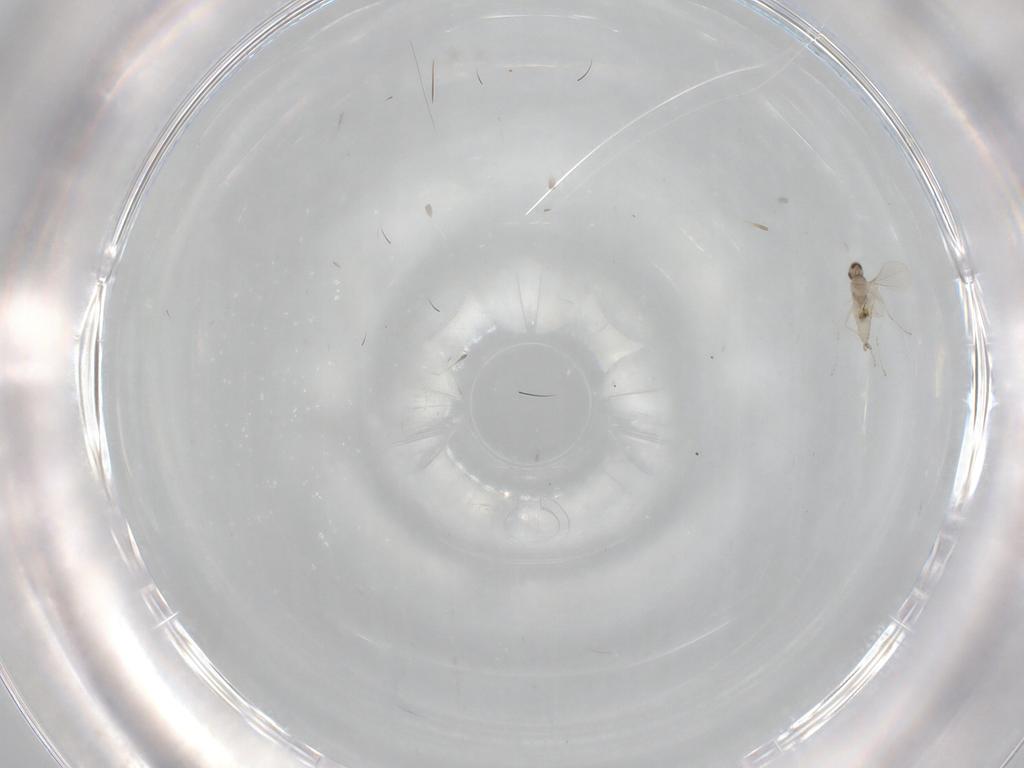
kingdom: Animalia
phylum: Arthropoda
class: Insecta
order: Diptera
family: Cecidomyiidae
